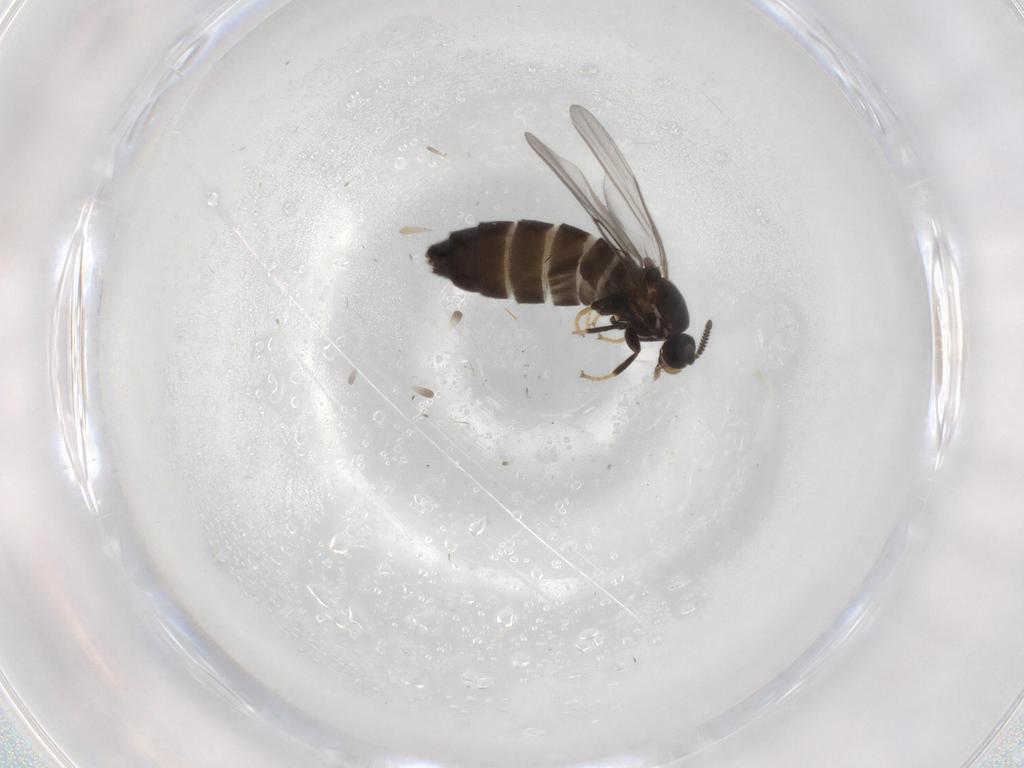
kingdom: Animalia
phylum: Arthropoda
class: Insecta
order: Diptera
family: Scatopsidae
